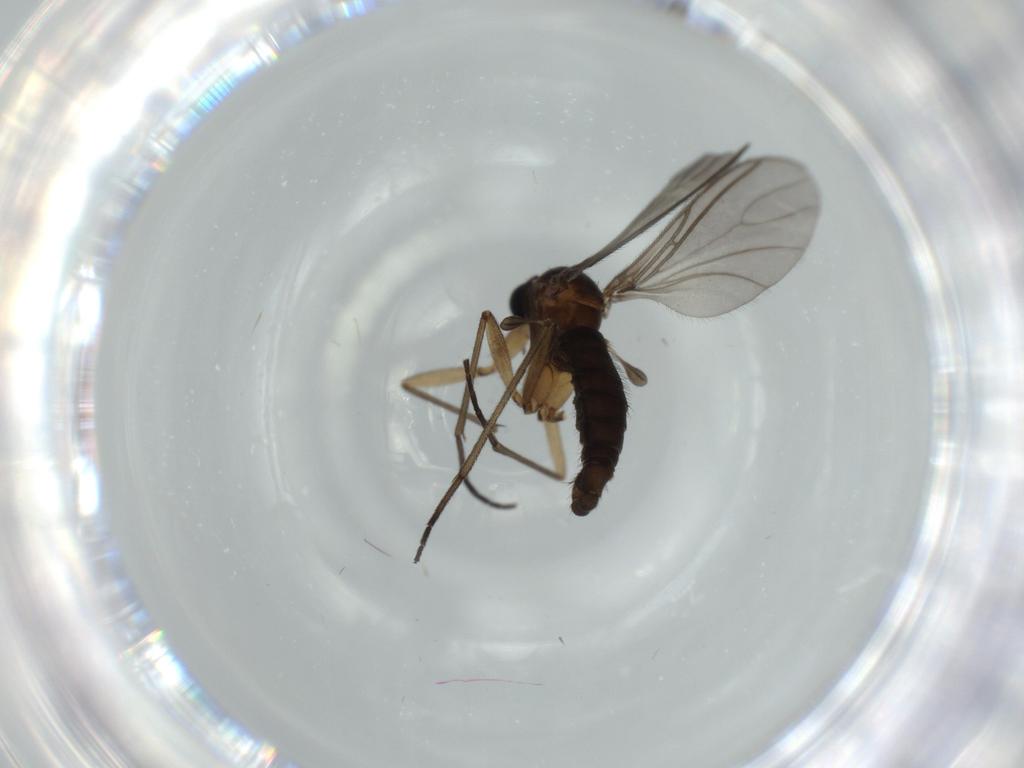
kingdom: Animalia
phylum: Arthropoda
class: Insecta
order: Diptera
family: Sciaridae
